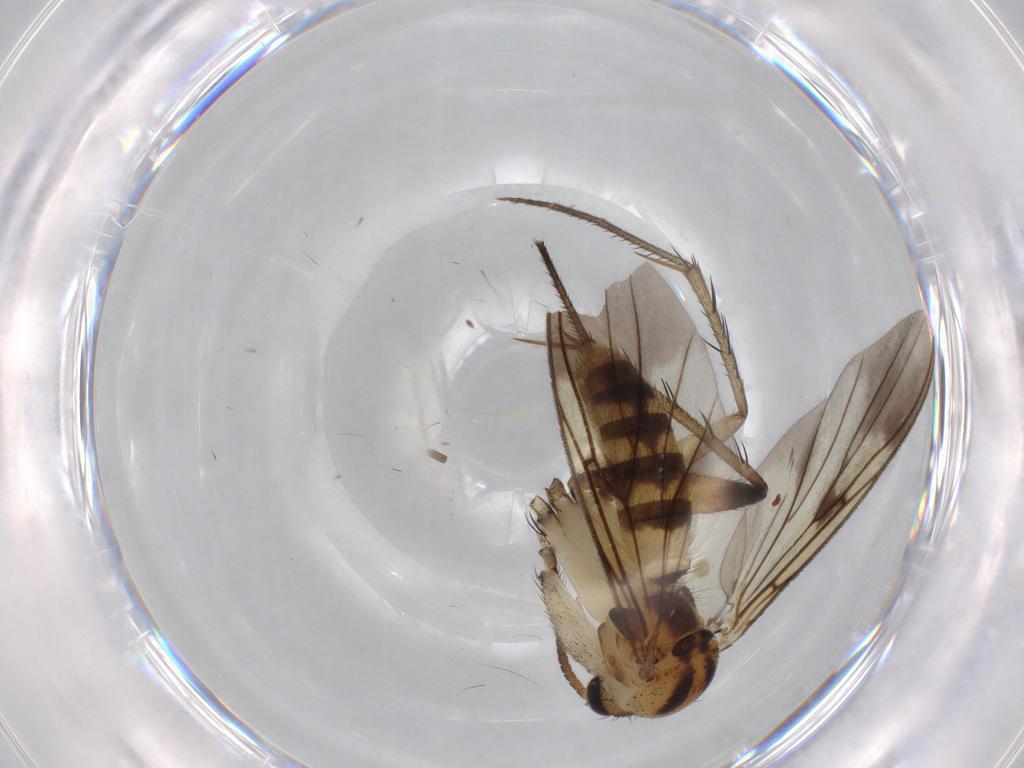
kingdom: Animalia
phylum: Arthropoda
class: Insecta
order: Diptera
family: Mycetophilidae
